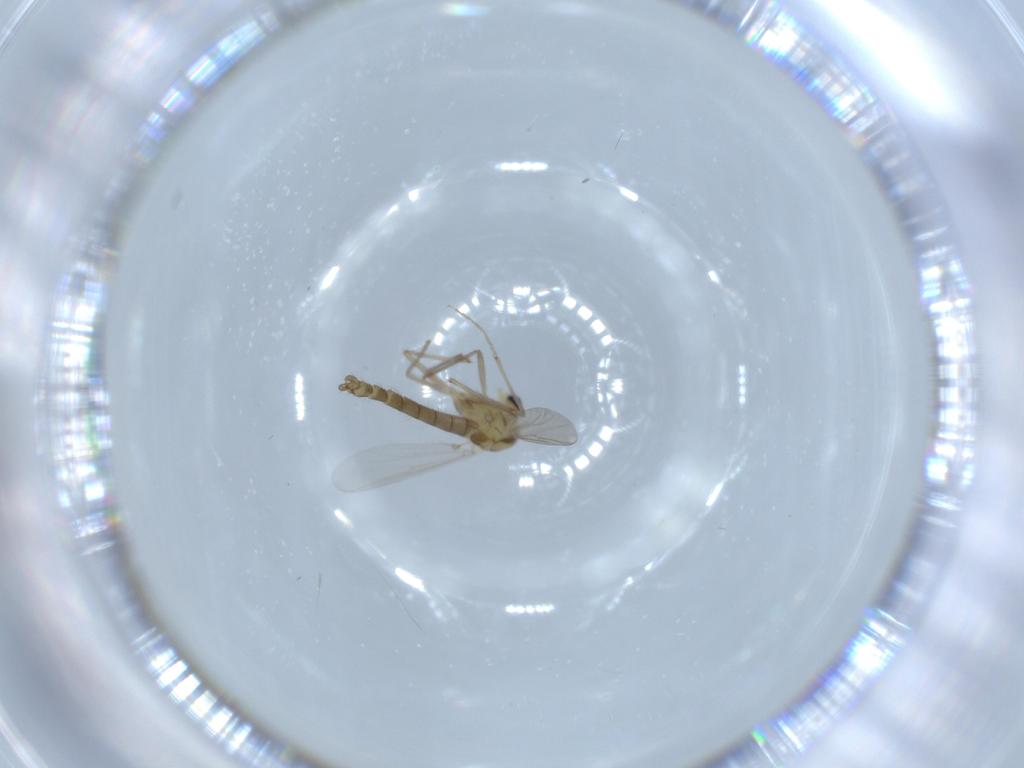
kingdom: Animalia
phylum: Arthropoda
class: Insecta
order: Diptera
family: Chironomidae
